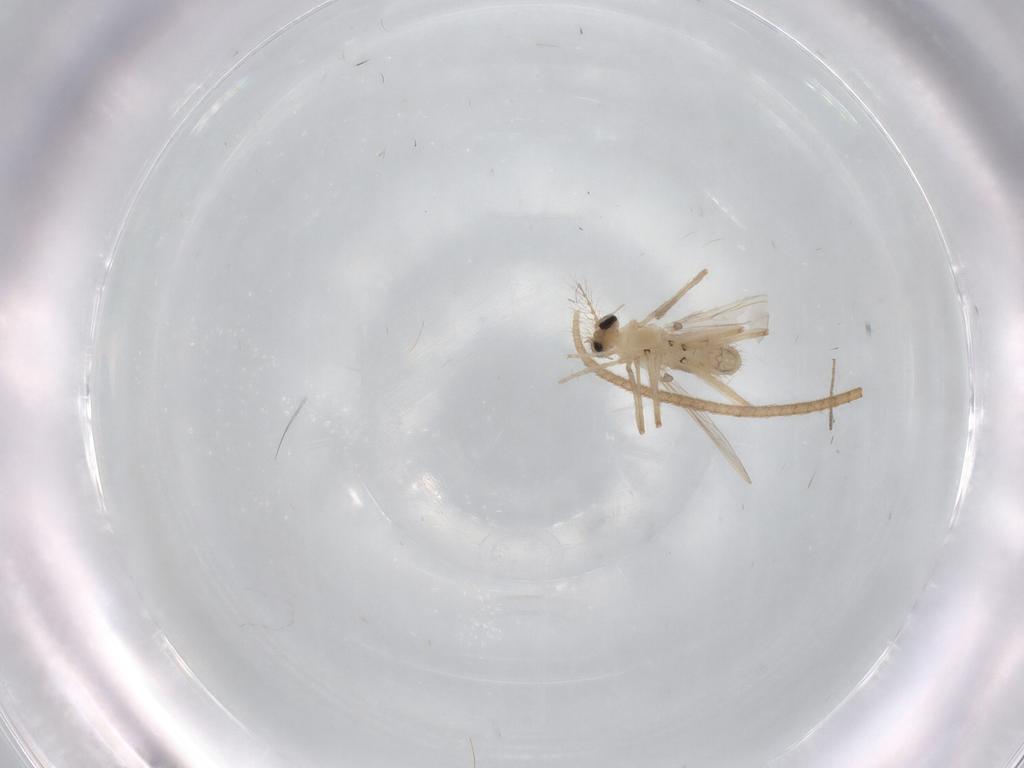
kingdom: Animalia
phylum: Arthropoda
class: Insecta
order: Diptera
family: Chironomidae
